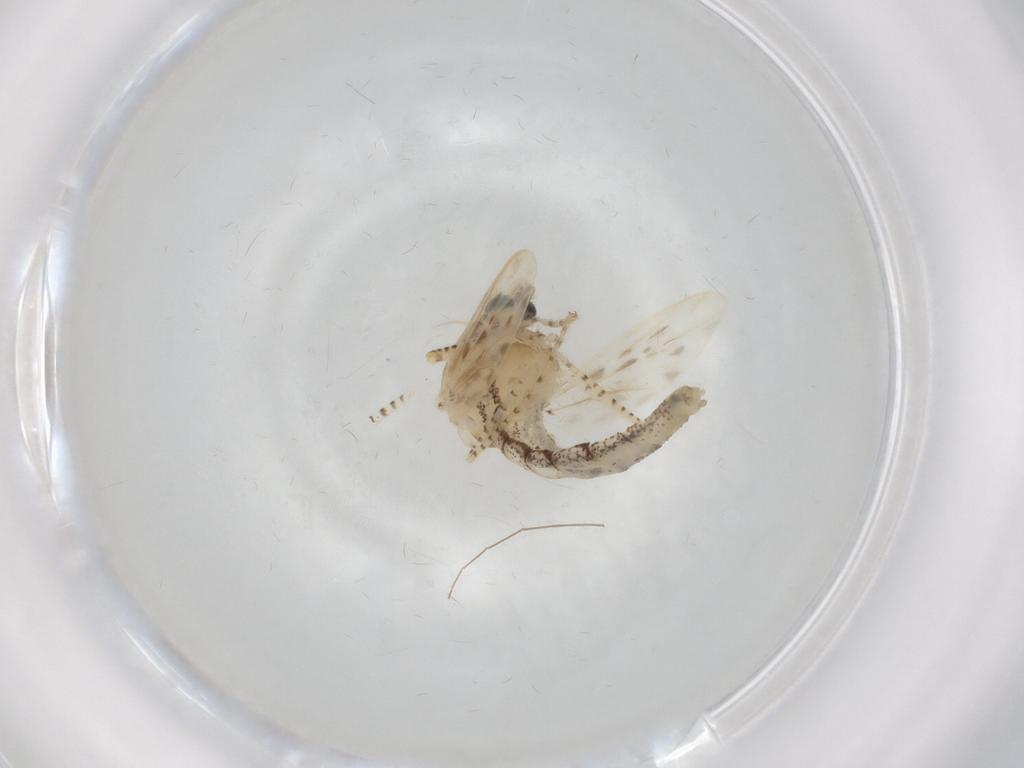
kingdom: Animalia
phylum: Arthropoda
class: Insecta
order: Diptera
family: Chaoboridae
